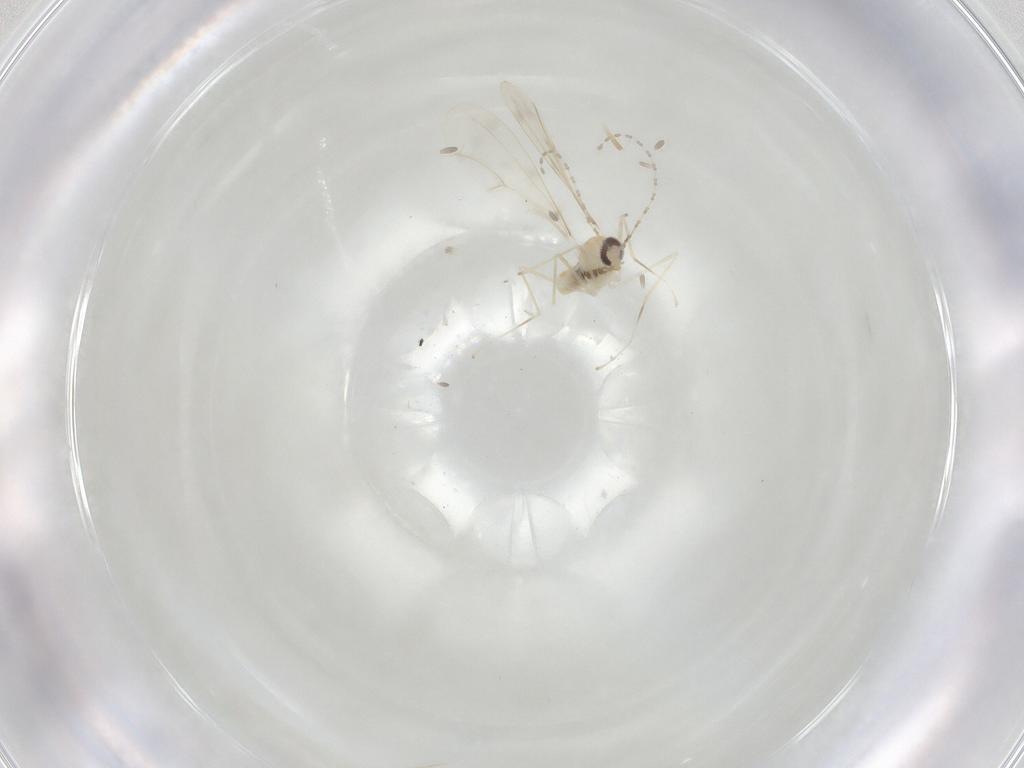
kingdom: Animalia
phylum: Arthropoda
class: Insecta
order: Diptera
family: Cecidomyiidae
